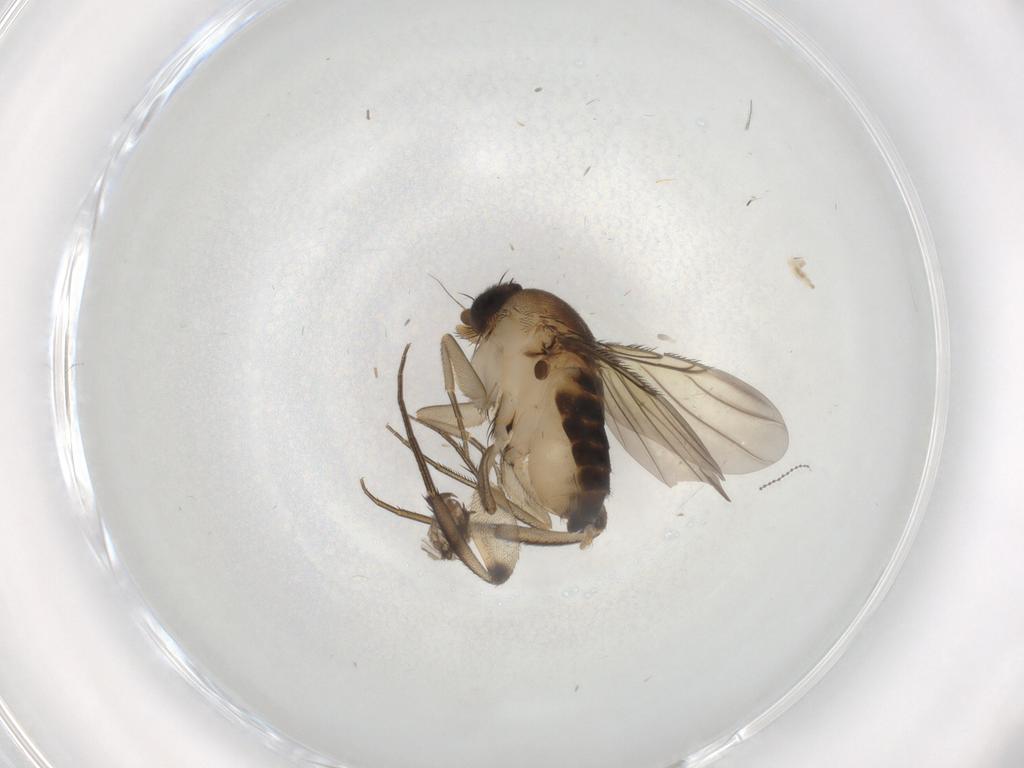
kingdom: Animalia
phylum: Arthropoda
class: Insecta
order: Diptera
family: Phoridae
